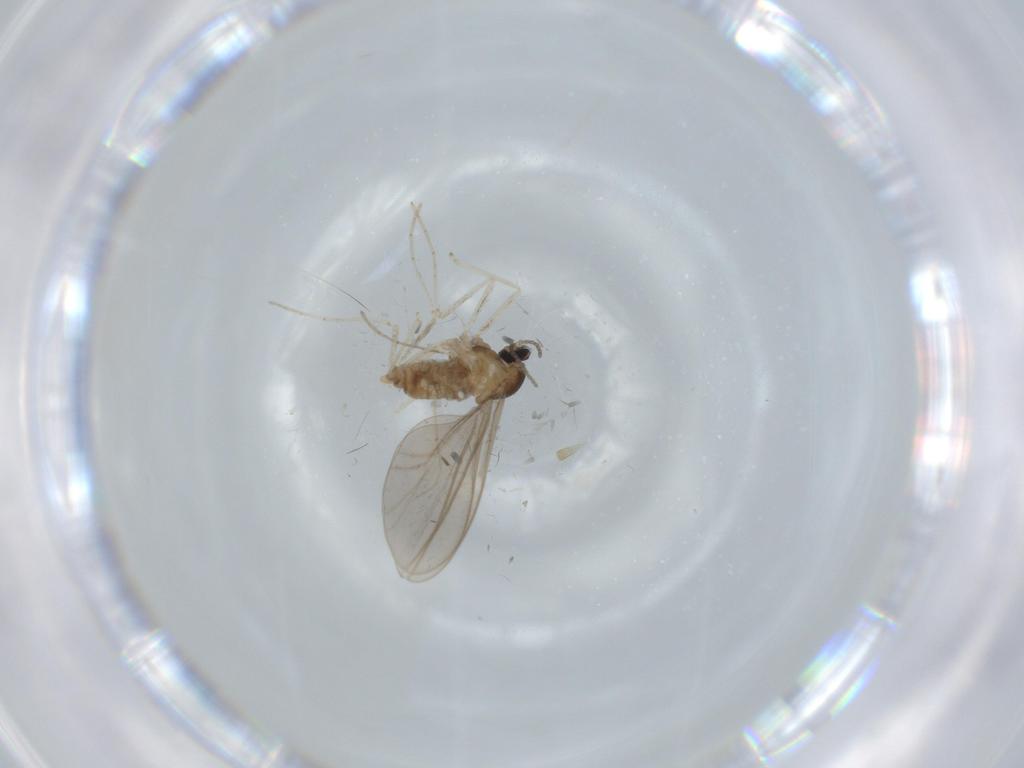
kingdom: Animalia
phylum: Arthropoda
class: Insecta
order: Diptera
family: Cecidomyiidae
